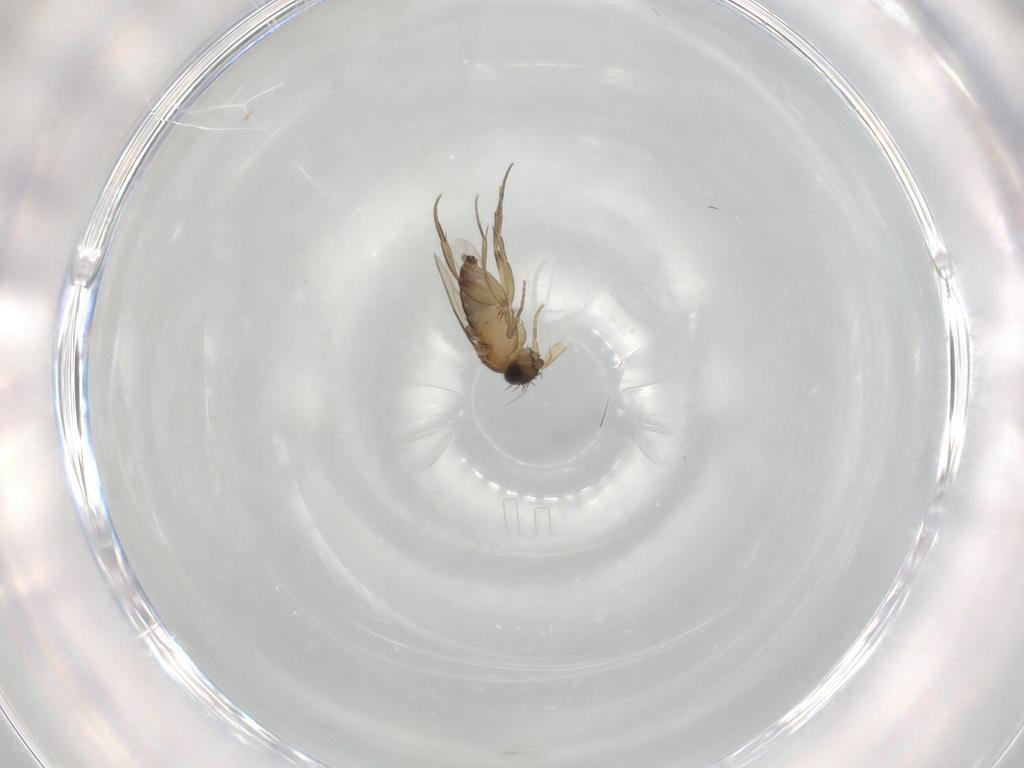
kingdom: Animalia
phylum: Arthropoda
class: Insecta
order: Diptera
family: Phoridae
